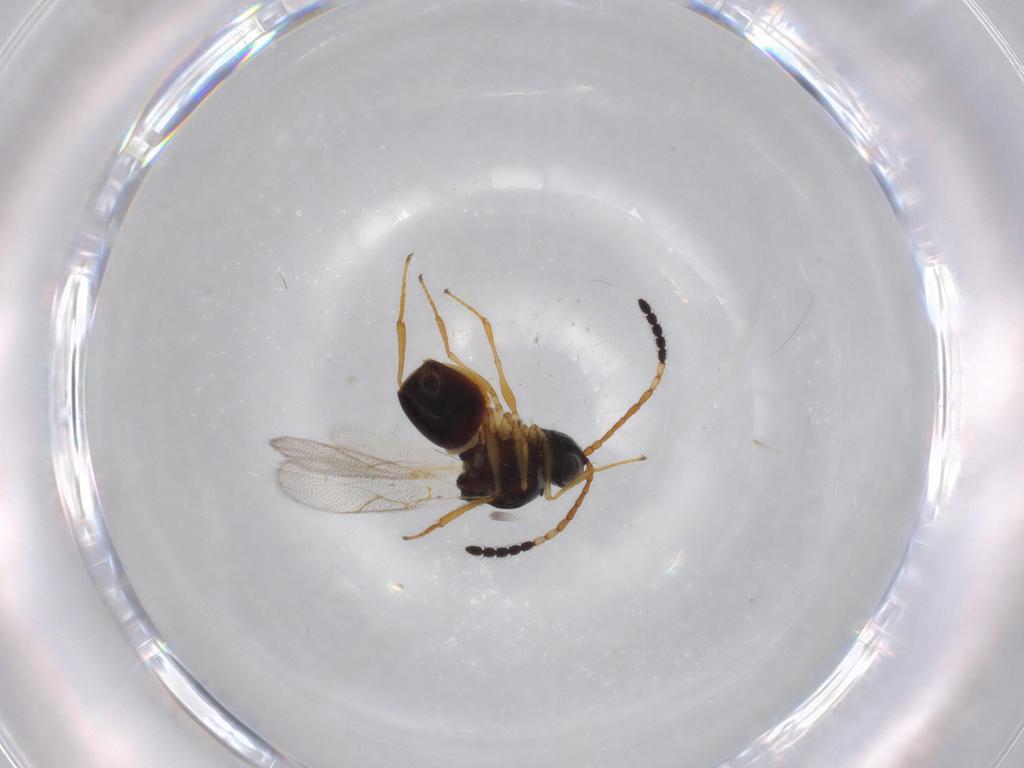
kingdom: Animalia
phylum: Arthropoda
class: Insecta
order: Hymenoptera
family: Figitidae
